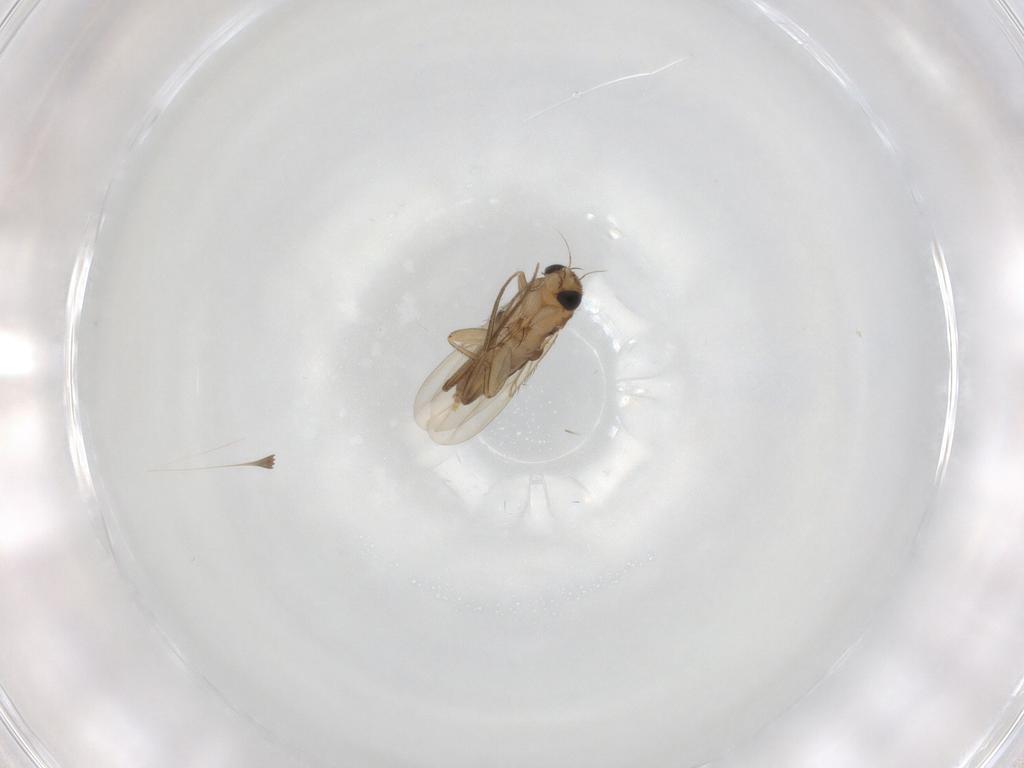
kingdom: Animalia
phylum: Arthropoda
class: Insecta
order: Diptera
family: Phoridae
